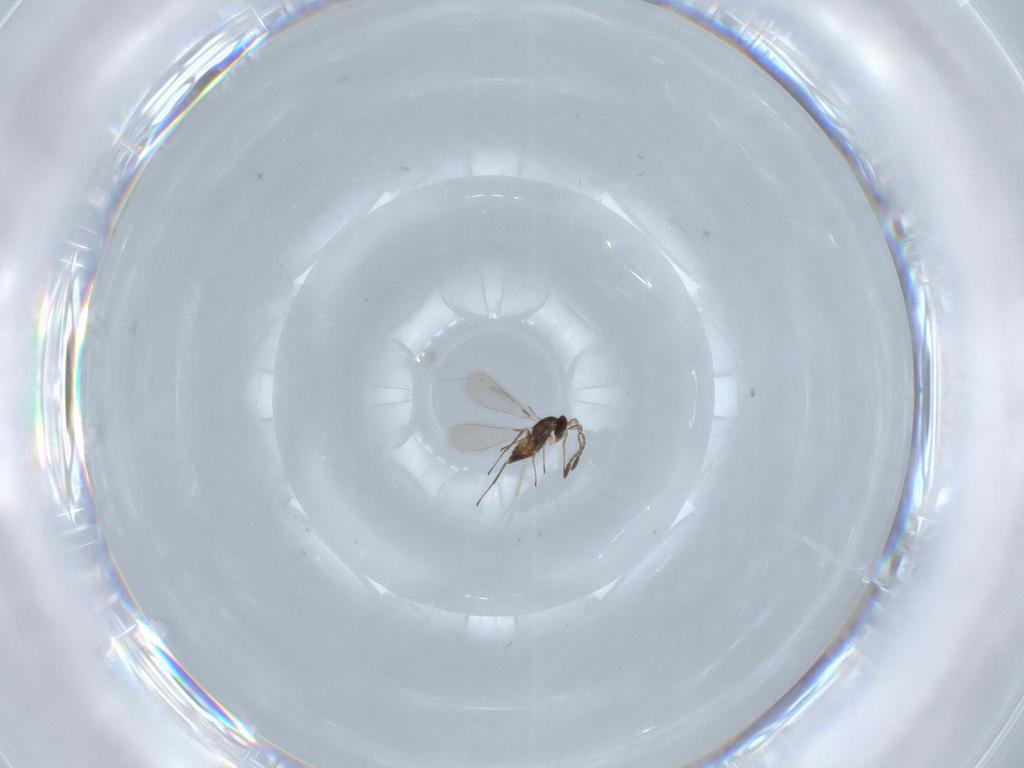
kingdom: Animalia
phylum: Arthropoda
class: Insecta
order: Hymenoptera
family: Mymaridae
